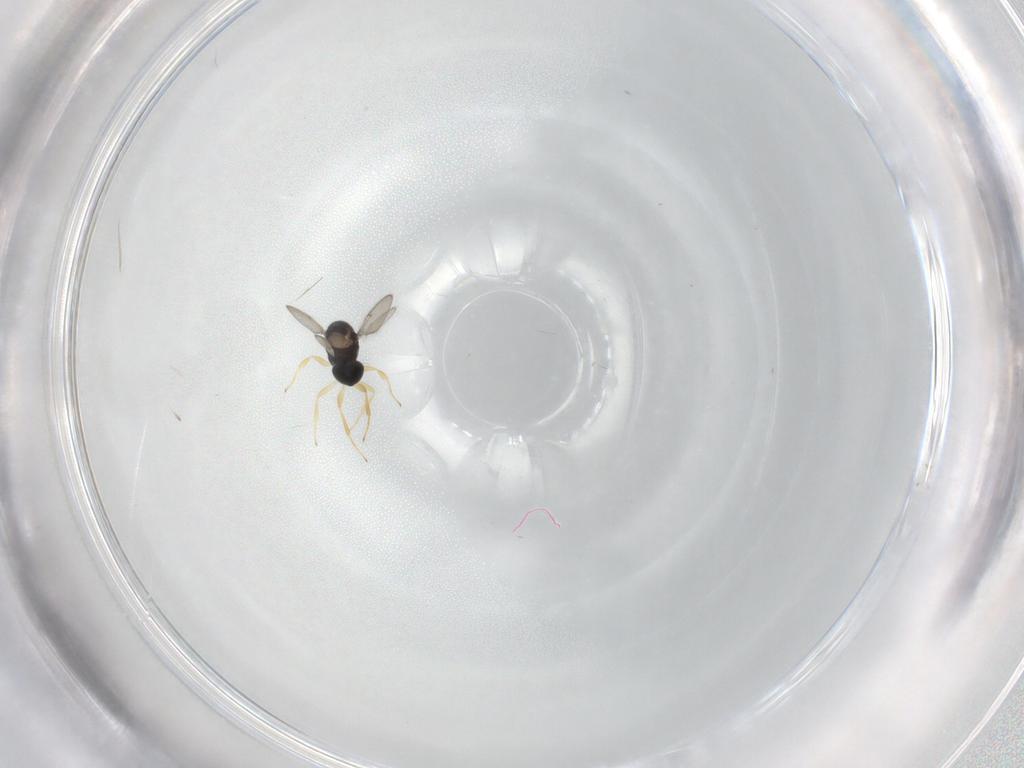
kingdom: Animalia
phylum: Arthropoda
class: Insecta
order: Hymenoptera
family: Scelionidae
